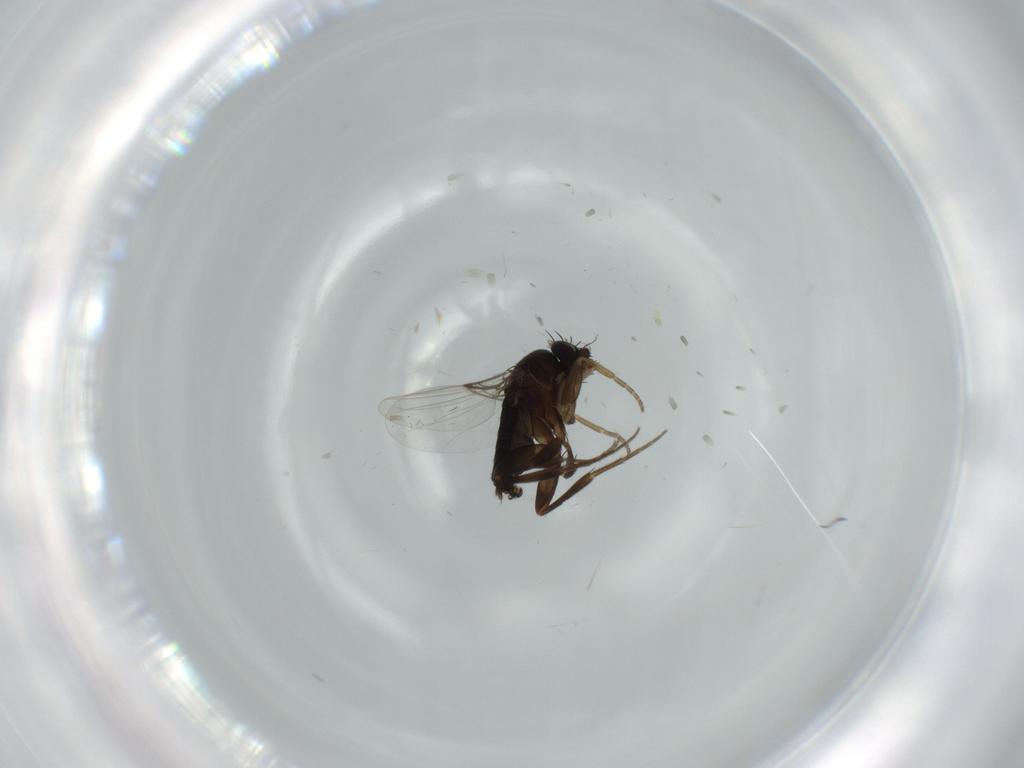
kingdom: Animalia
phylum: Arthropoda
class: Insecta
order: Diptera
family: Phoridae
